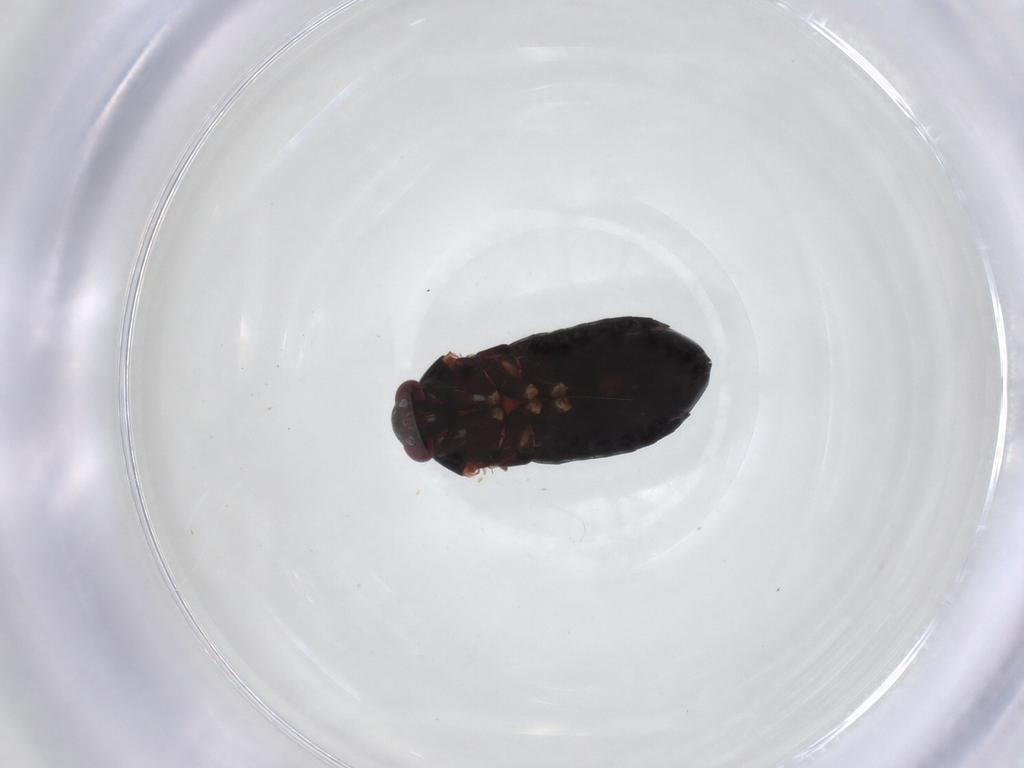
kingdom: Animalia
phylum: Arthropoda
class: Insecta
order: Hemiptera
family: Miridae
